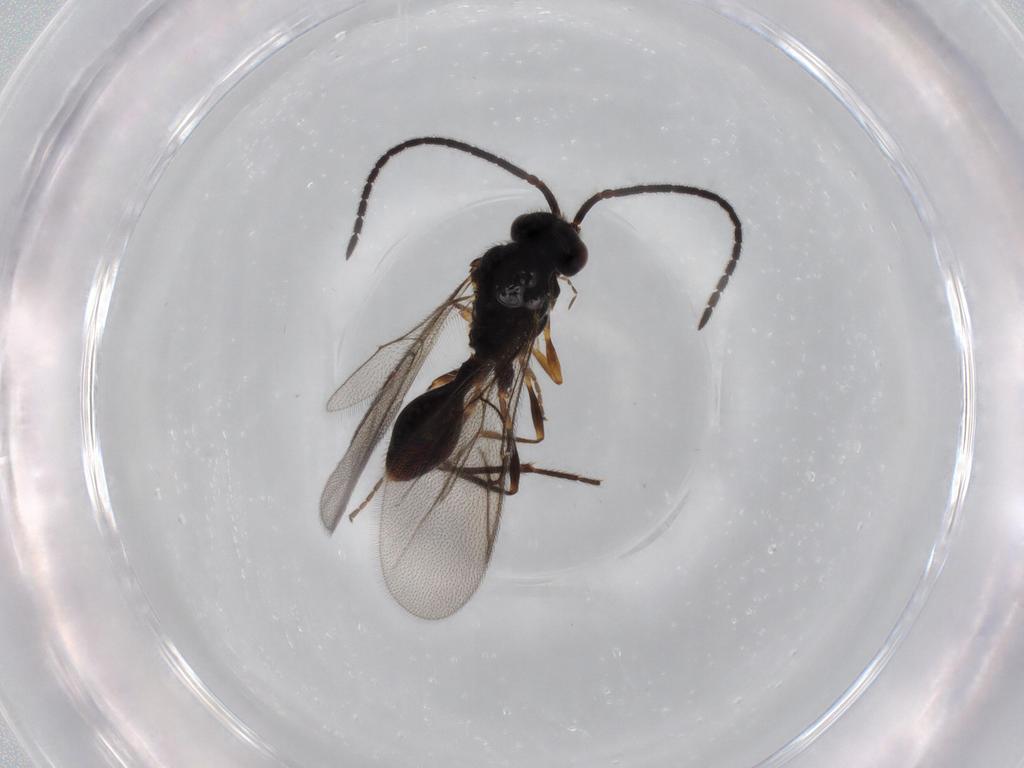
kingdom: Animalia
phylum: Arthropoda
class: Insecta
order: Hymenoptera
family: Diapriidae
